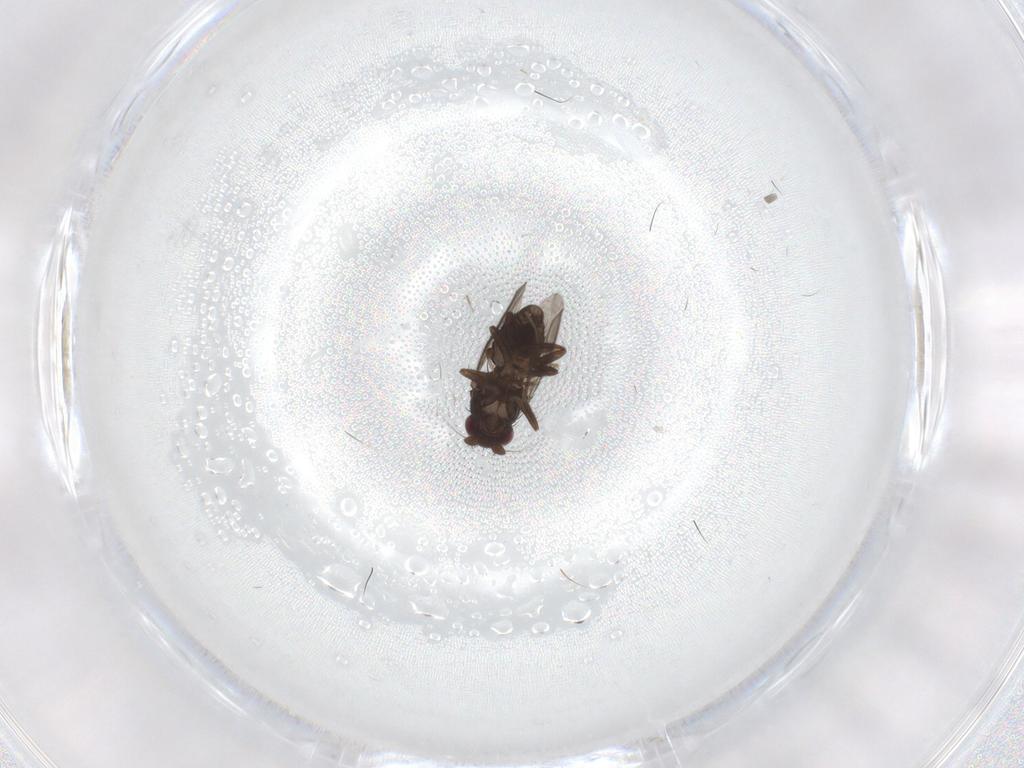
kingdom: Animalia
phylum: Arthropoda
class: Insecta
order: Diptera
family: Sphaeroceridae
